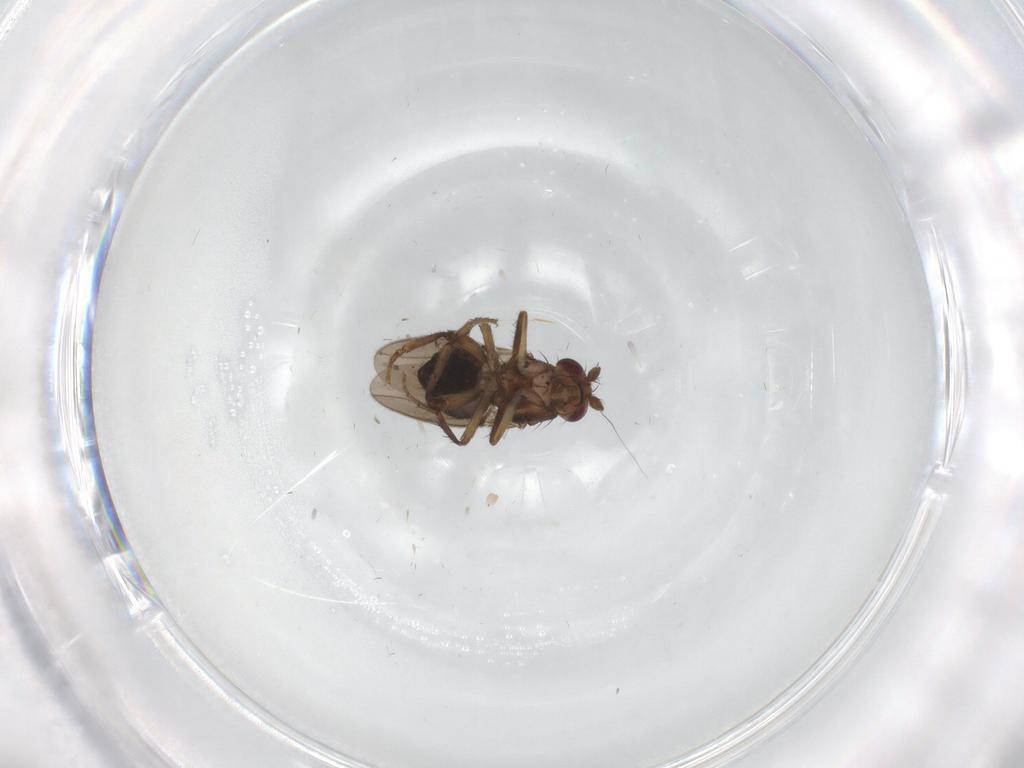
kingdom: Animalia
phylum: Arthropoda
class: Insecta
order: Diptera
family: Sphaeroceridae
